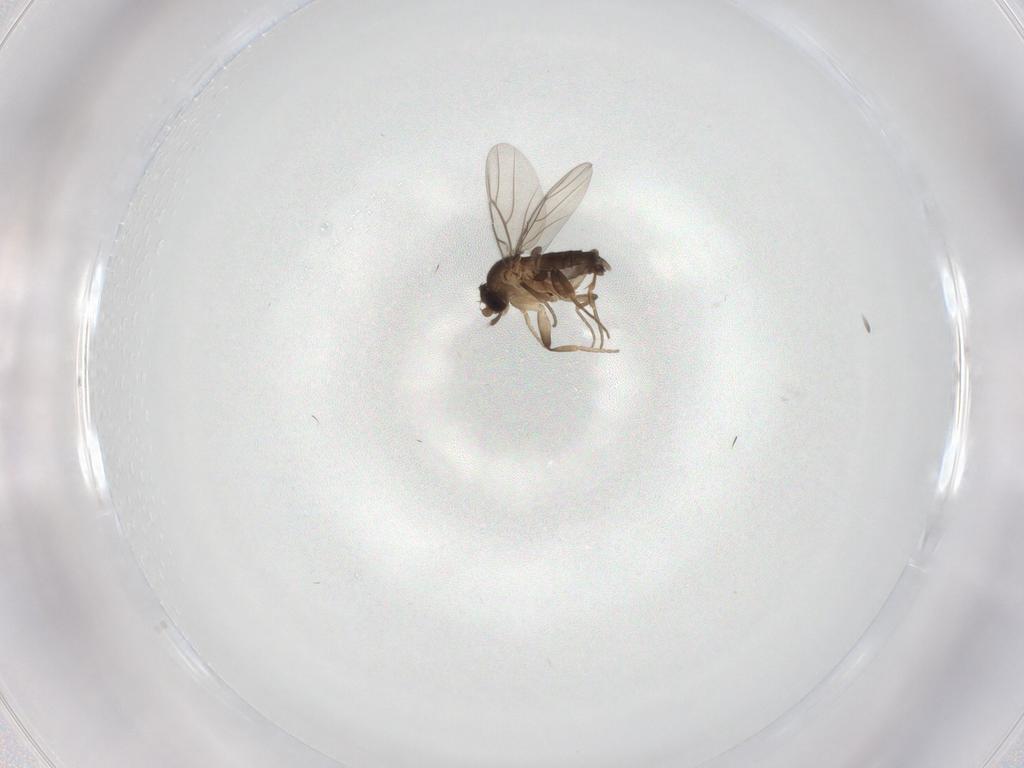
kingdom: Animalia
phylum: Arthropoda
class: Insecta
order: Diptera
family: Phoridae
